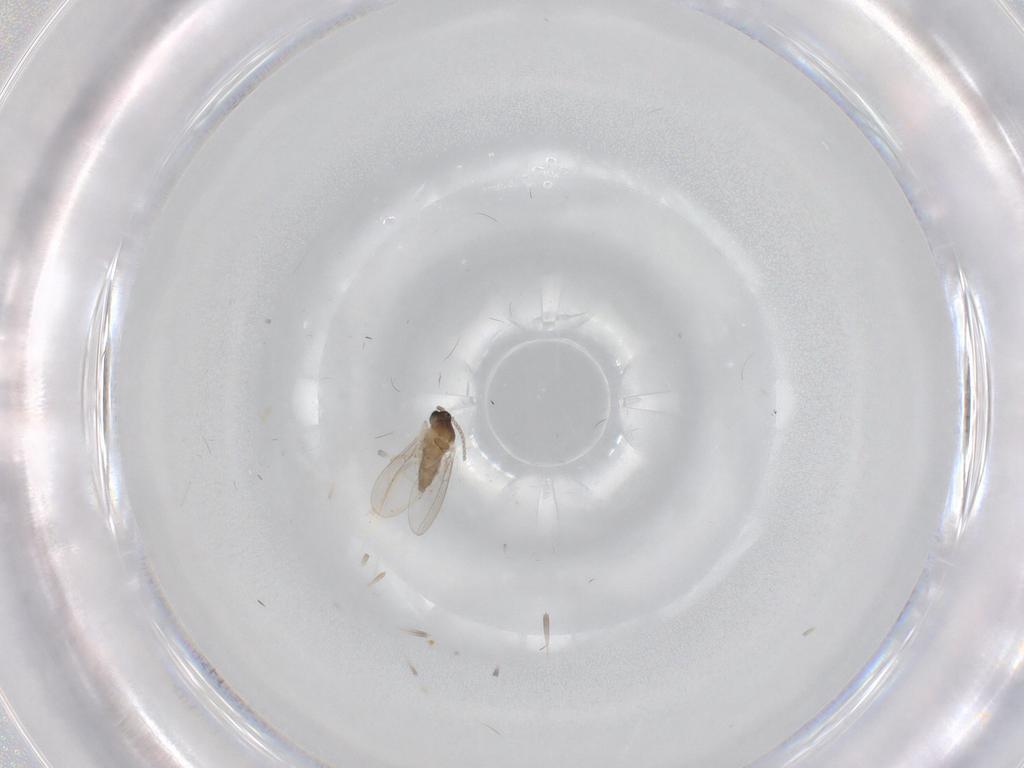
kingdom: Animalia
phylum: Arthropoda
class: Insecta
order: Diptera
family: Cecidomyiidae
